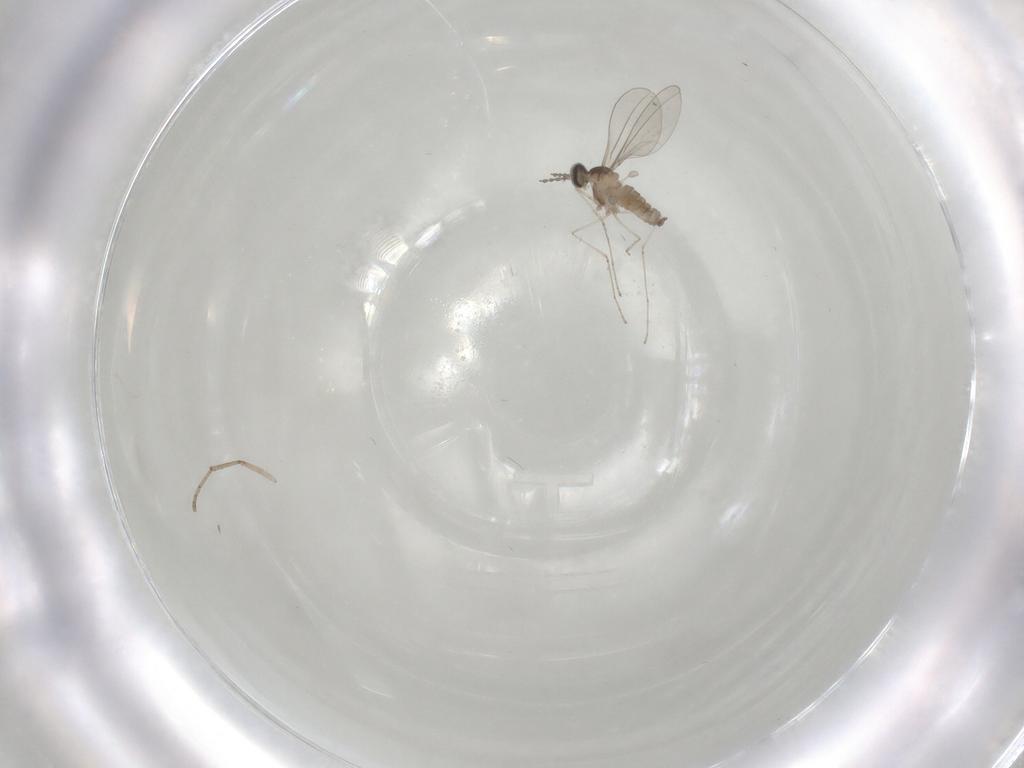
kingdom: Animalia
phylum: Arthropoda
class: Insecta
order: Diptera
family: Cecidomyiidae
